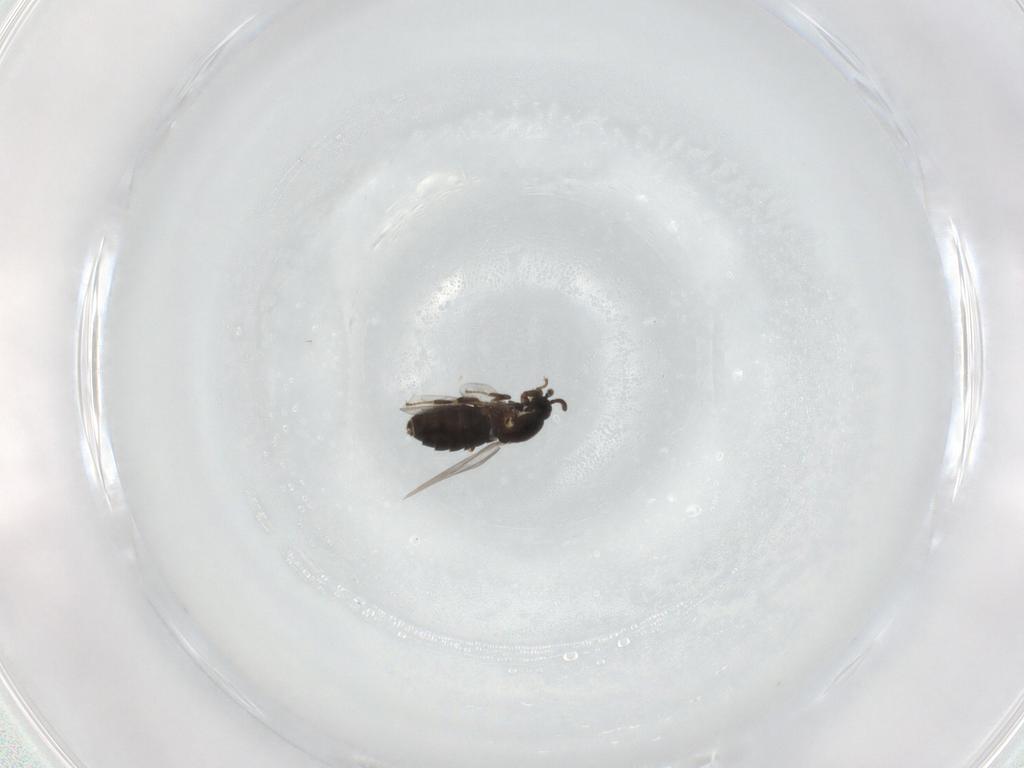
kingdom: Animalia
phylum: Arthropoda
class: Insecta
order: Diptera
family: Scatopsidae
